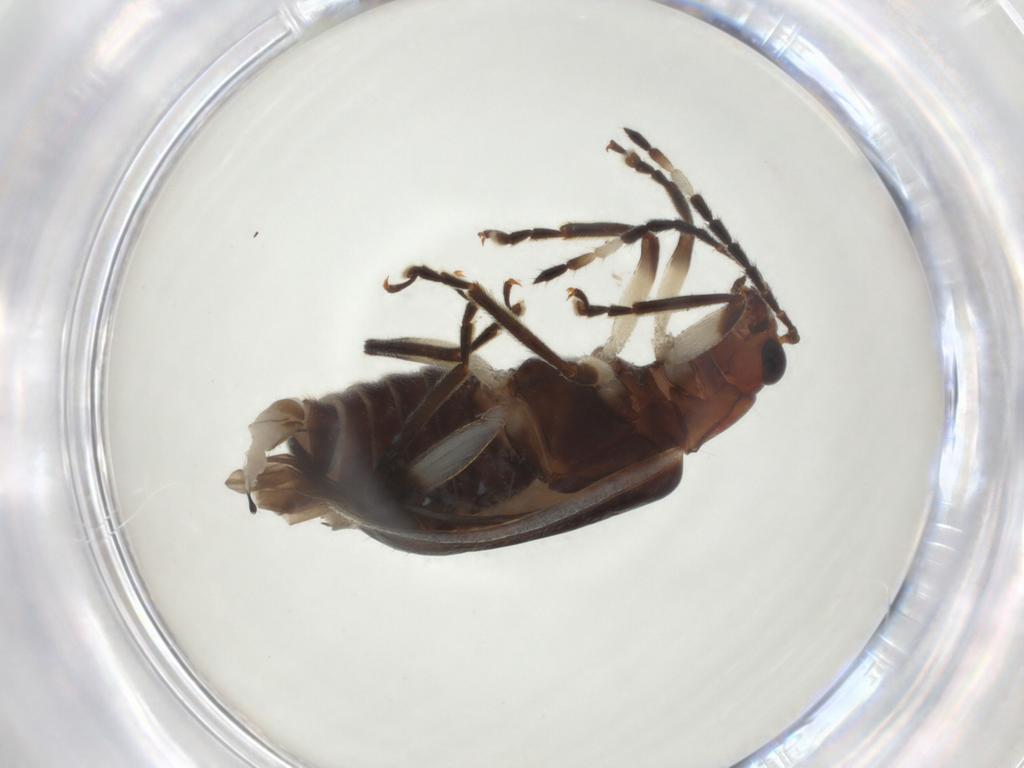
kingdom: Animalia
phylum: Arthropoda
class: Insecta
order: Coleoptera
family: Chrysomelidae
